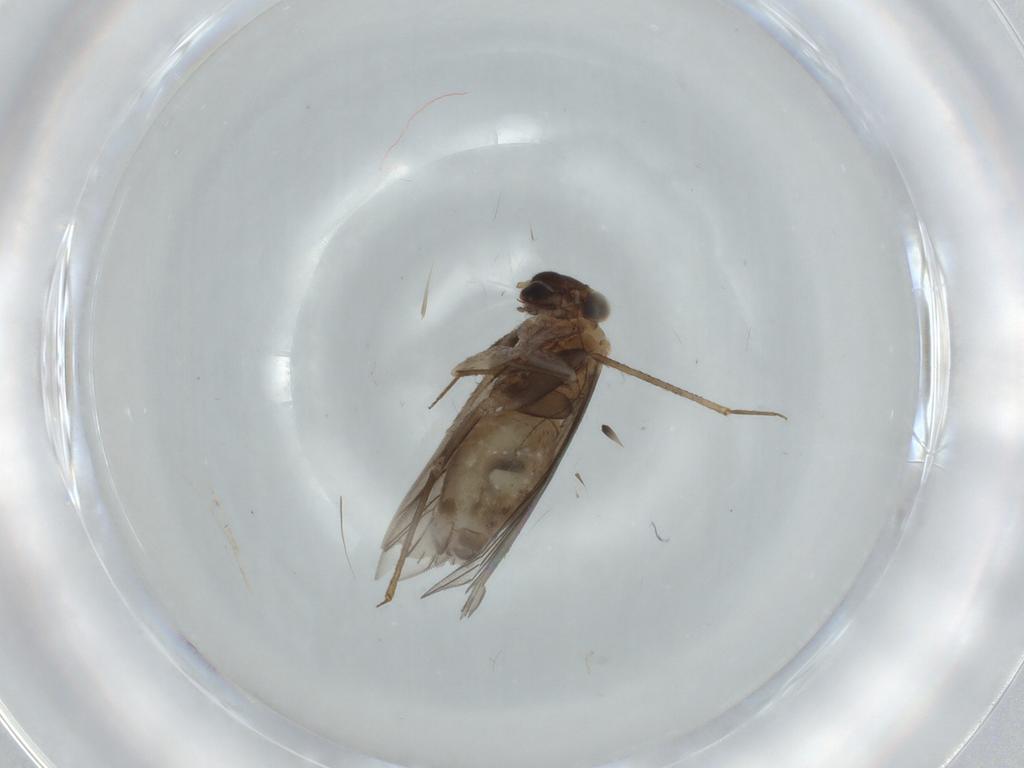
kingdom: Animalia
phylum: Arthropoda
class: Insecta
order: Psocodea
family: Lepidopsocidae
